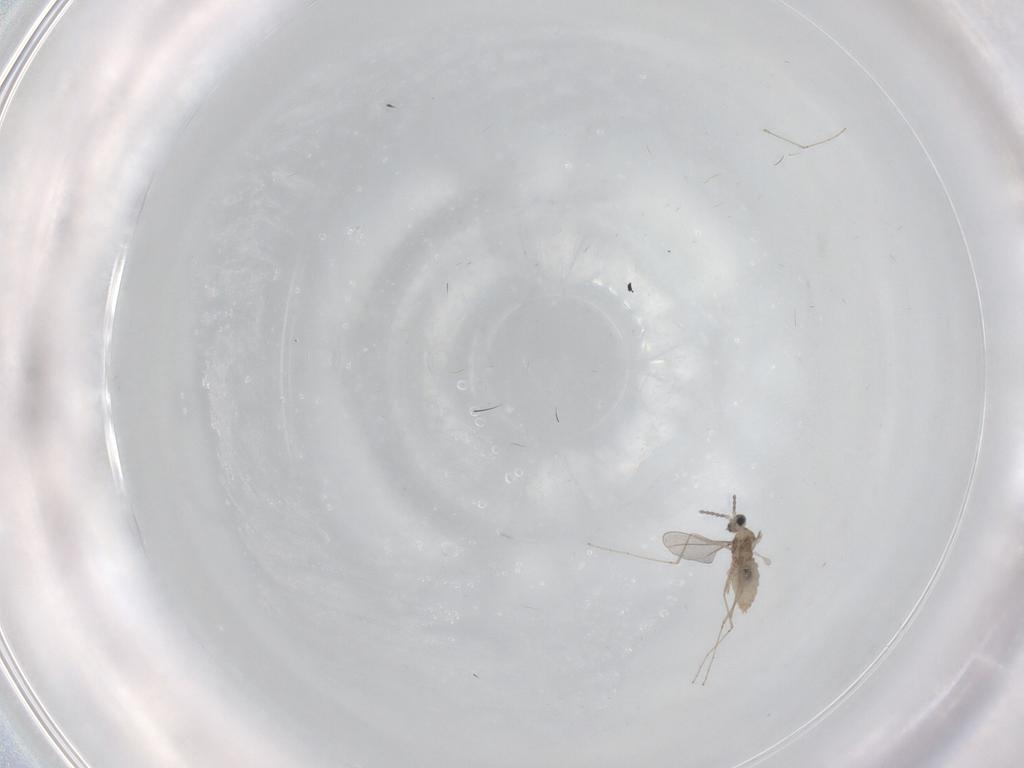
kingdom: Animalia
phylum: Arthropoda
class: Insecta
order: Diptera
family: Cecidomyiidae
